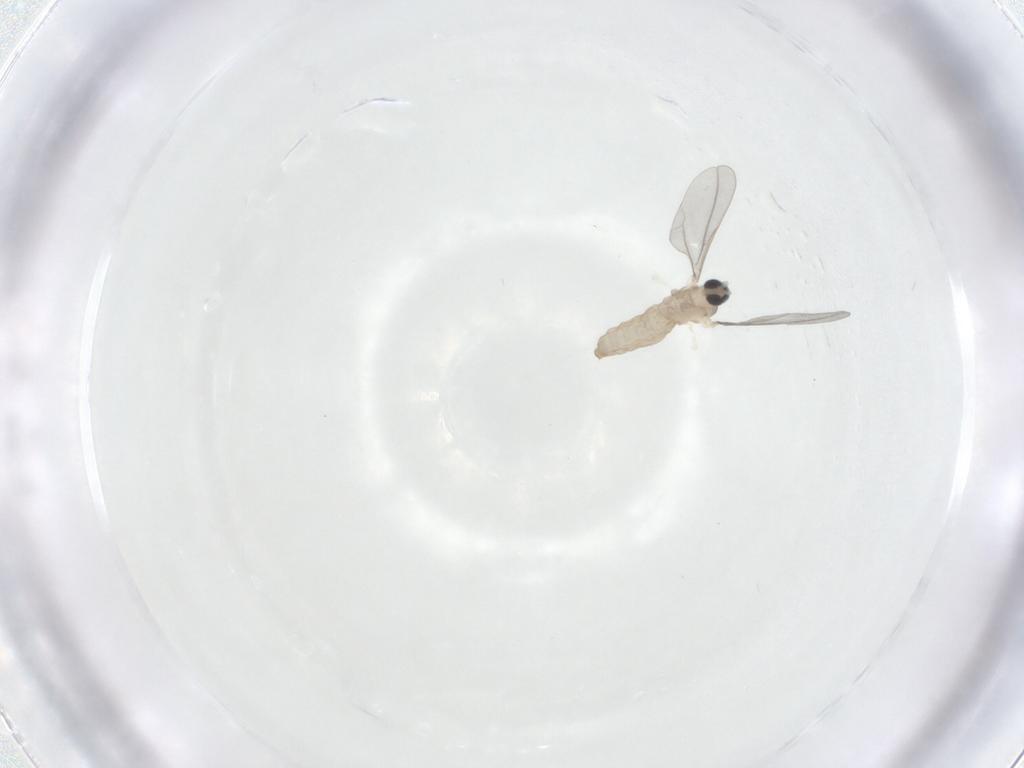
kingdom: Animalia
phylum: Arthropoda
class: Insecta
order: Diptera
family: Cecidomyiidae
